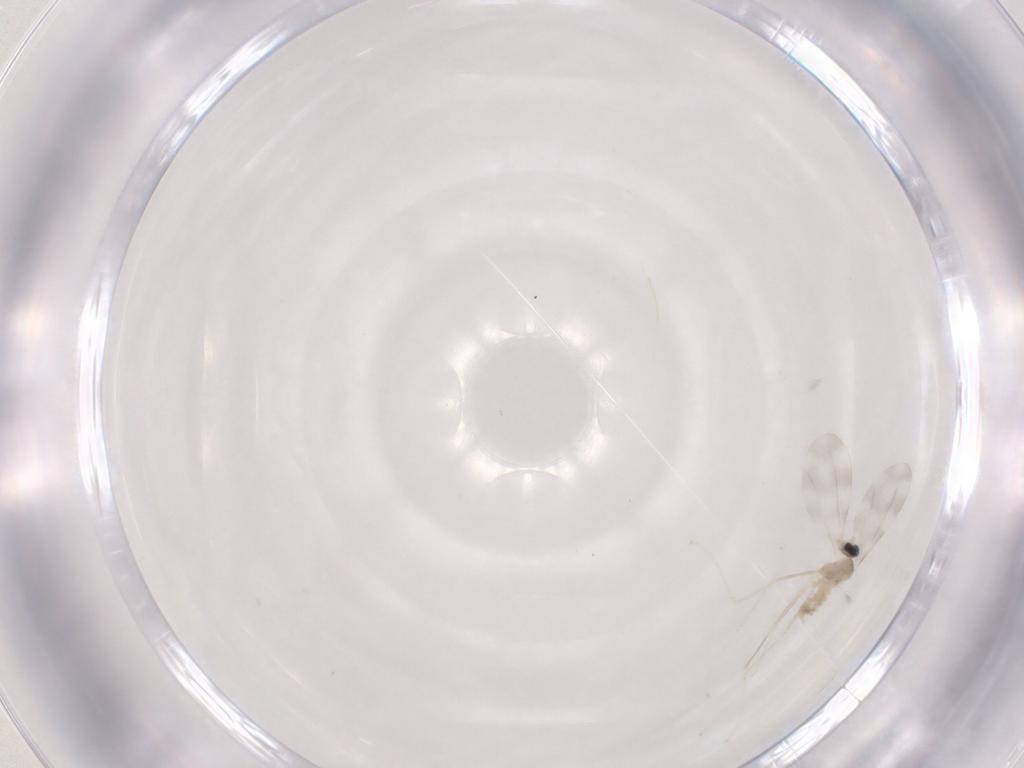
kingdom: Animalia
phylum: Arthropoda
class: Insecta
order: Diptera
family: Cecidomyiidae
